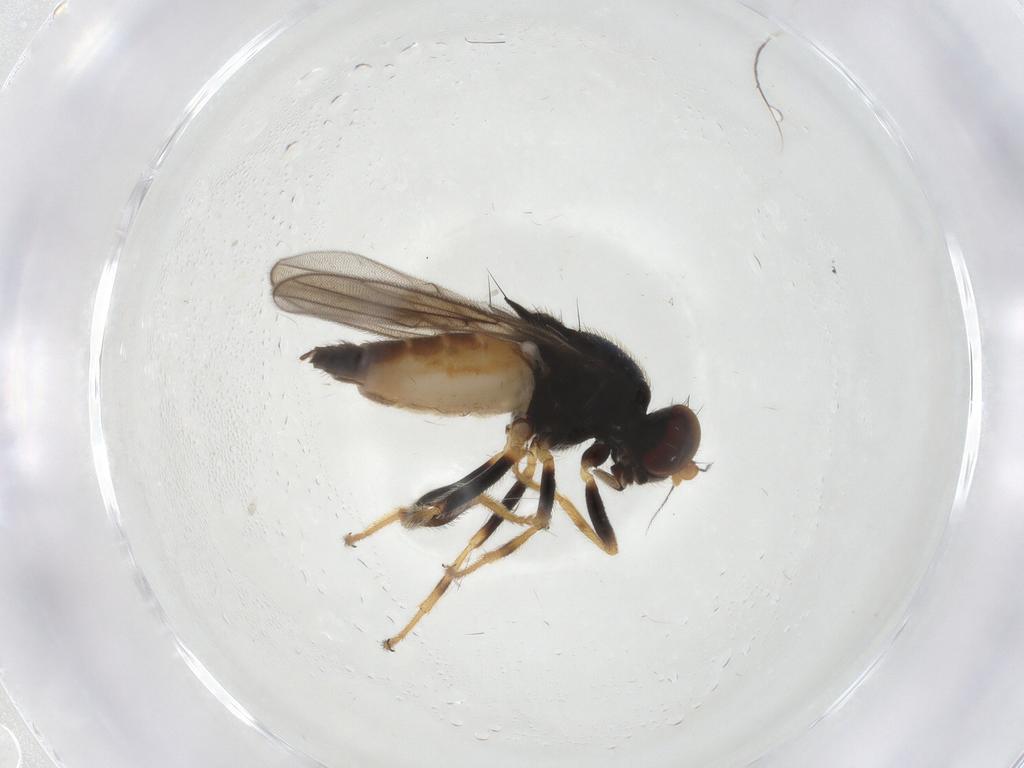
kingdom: Animalia
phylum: Arthropoda
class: Insecta
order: Diptera
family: Chloropidae
